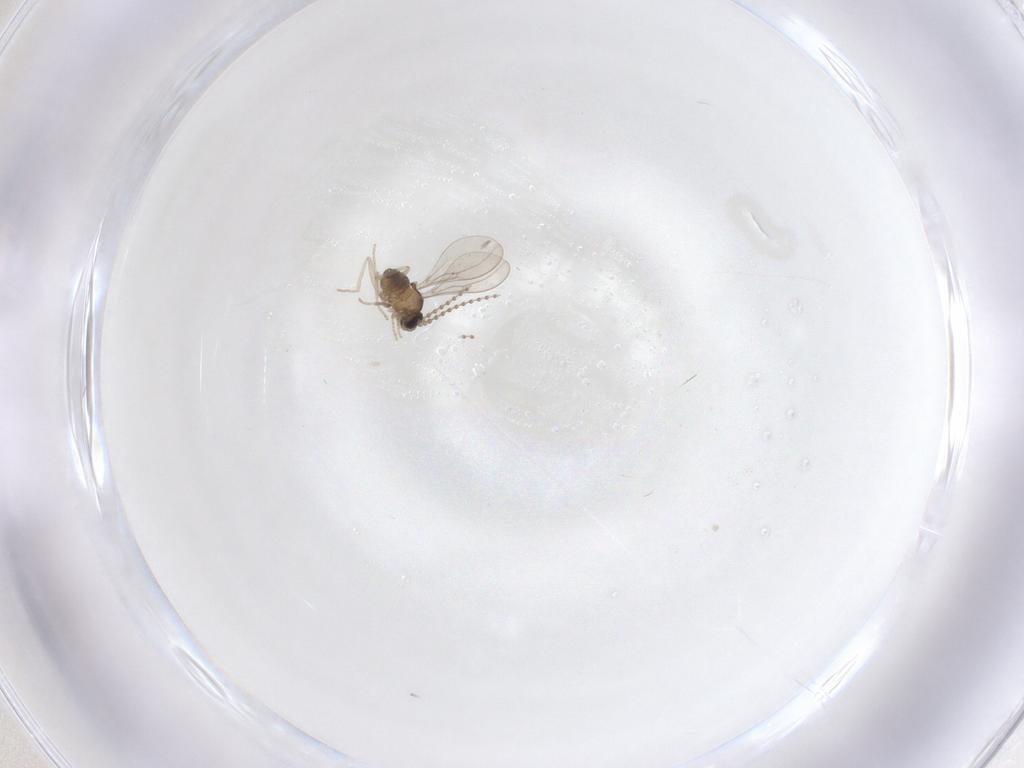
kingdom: Animalia
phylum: Arthropoda
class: Insecta
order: Diptera
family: Cecidomyiidae
